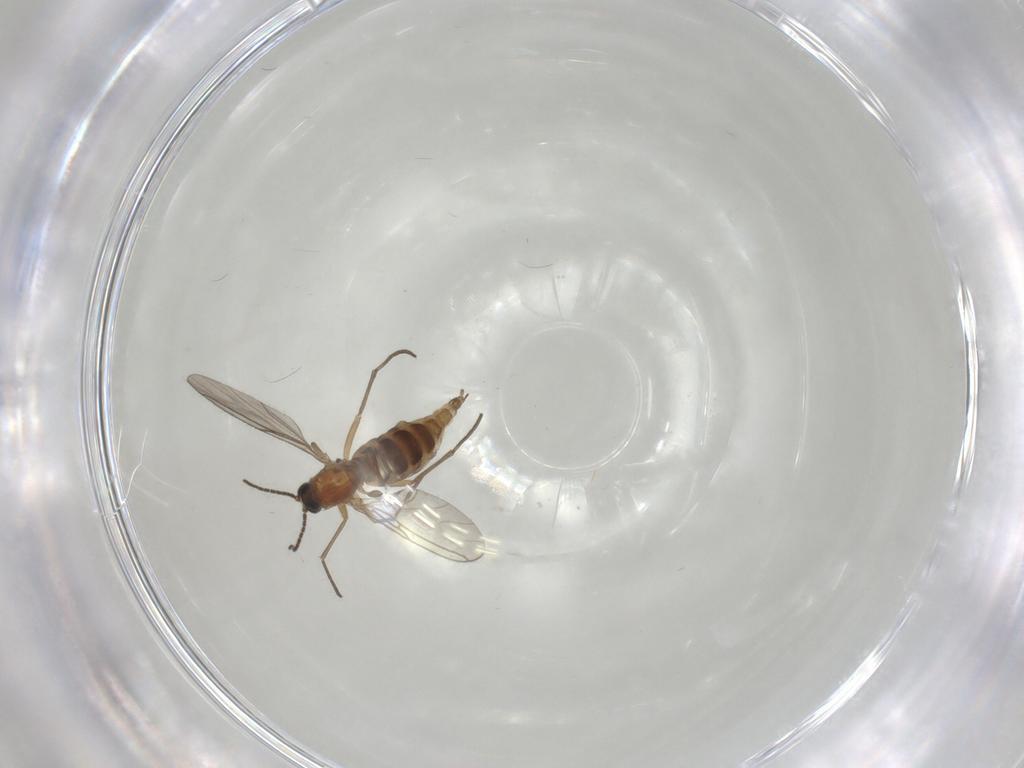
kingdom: Animalia
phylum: Arthropoda
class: Insecta
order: Diptera
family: Sciaridae
